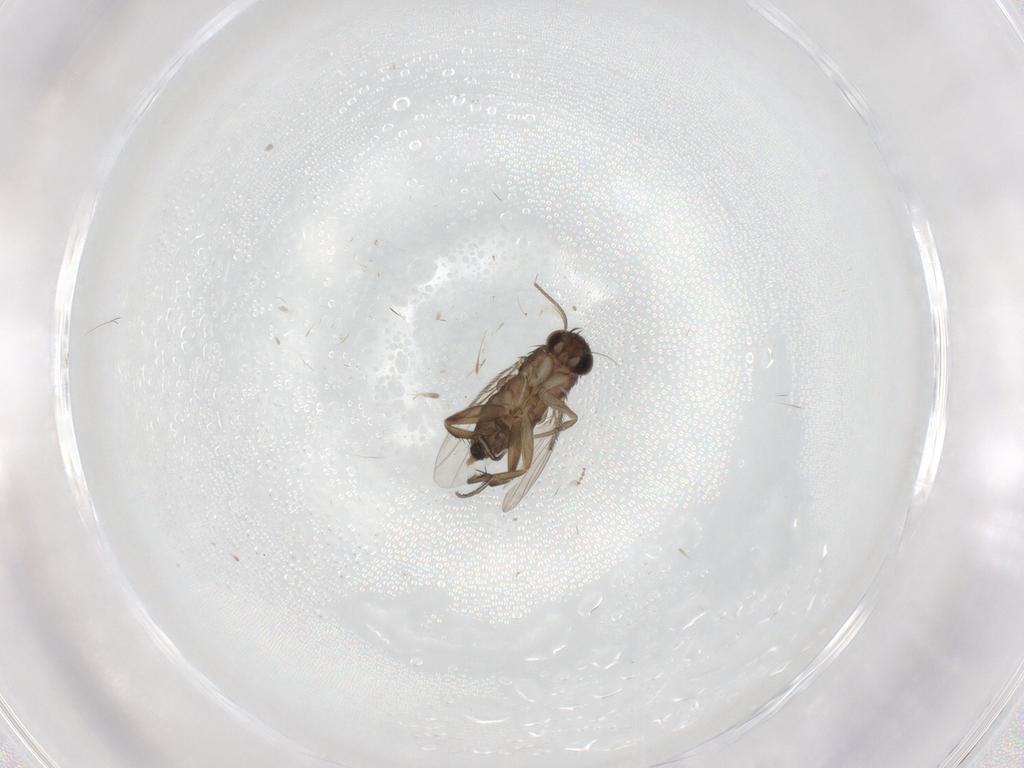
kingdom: Animalia
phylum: Arthropoda
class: Insecta
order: Diptera
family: Phoridae
